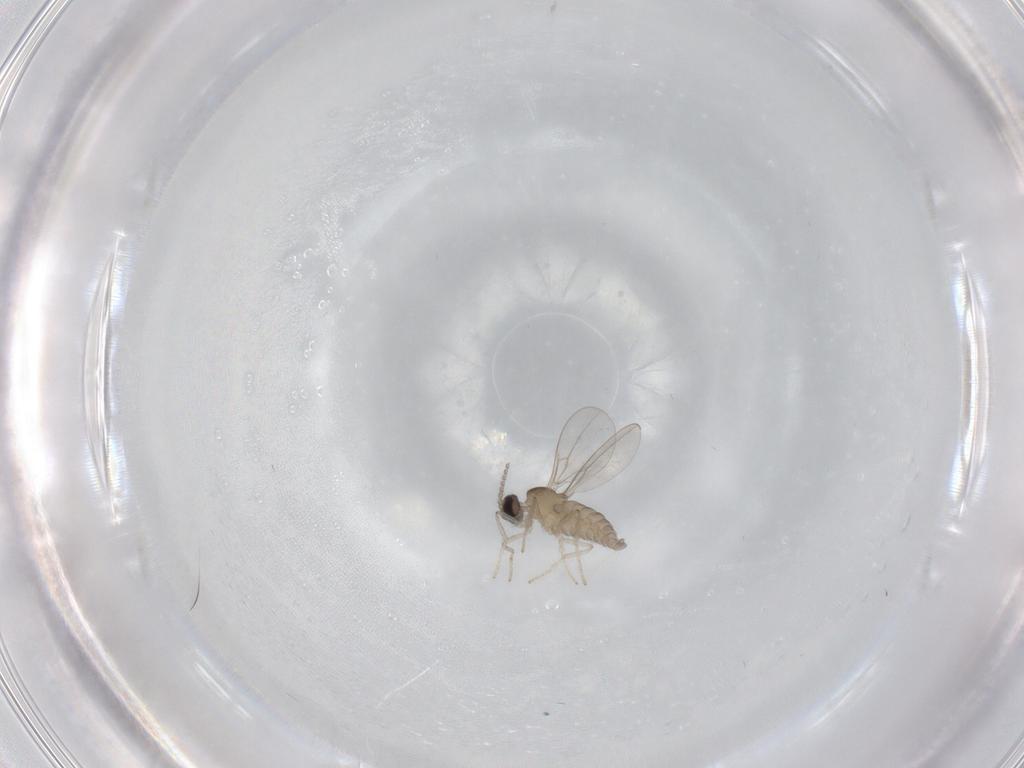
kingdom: Animalia
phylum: Arthropoda
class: Insecta
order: Diptera
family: Cecidomyiidae
